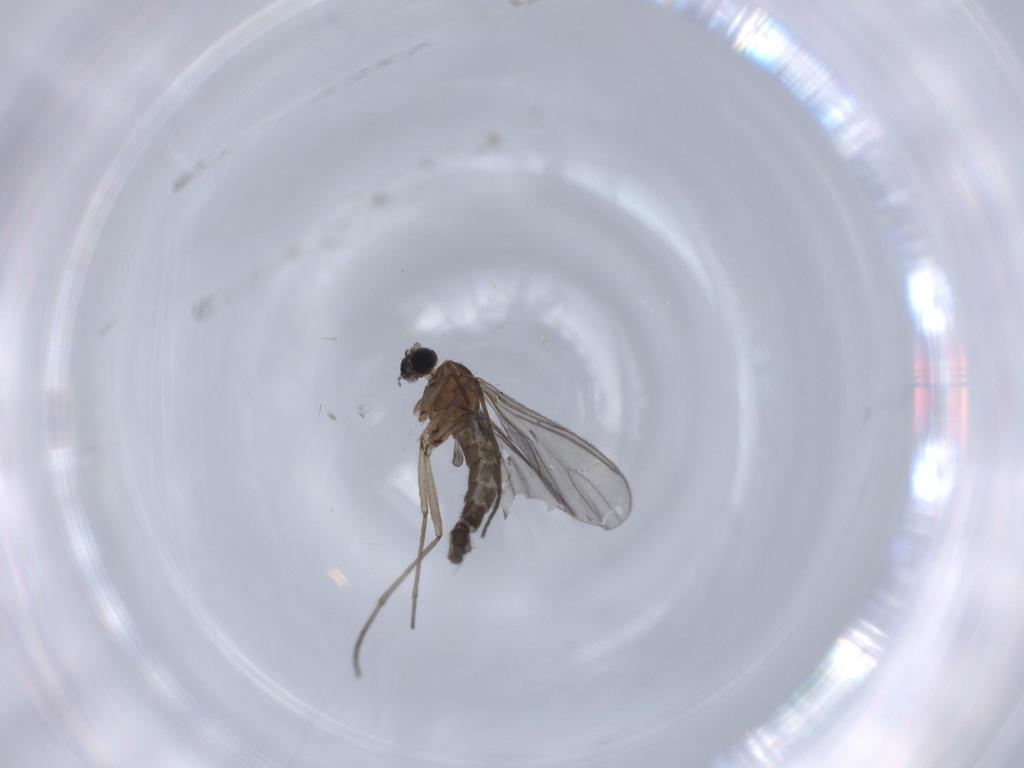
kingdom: Animalia
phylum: Arthropoda
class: Insecta
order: Diptera
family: Sciaridae
